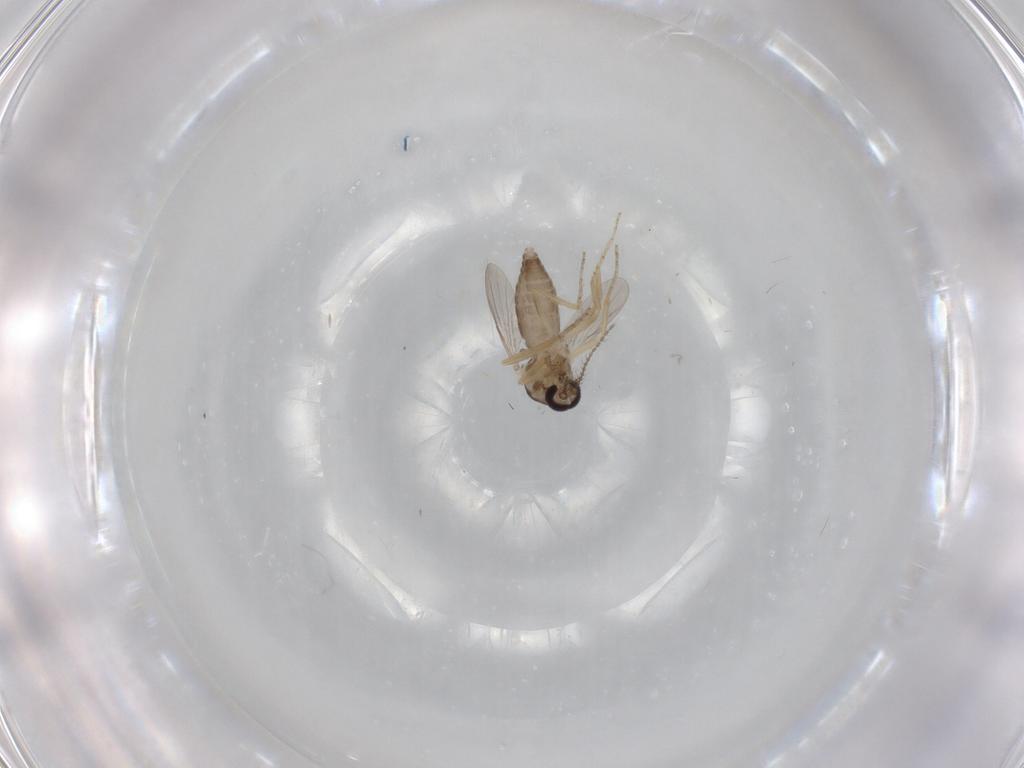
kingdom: Animalia
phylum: Arthropoda
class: Insecta
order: Diptera
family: Ceratopogonidae
